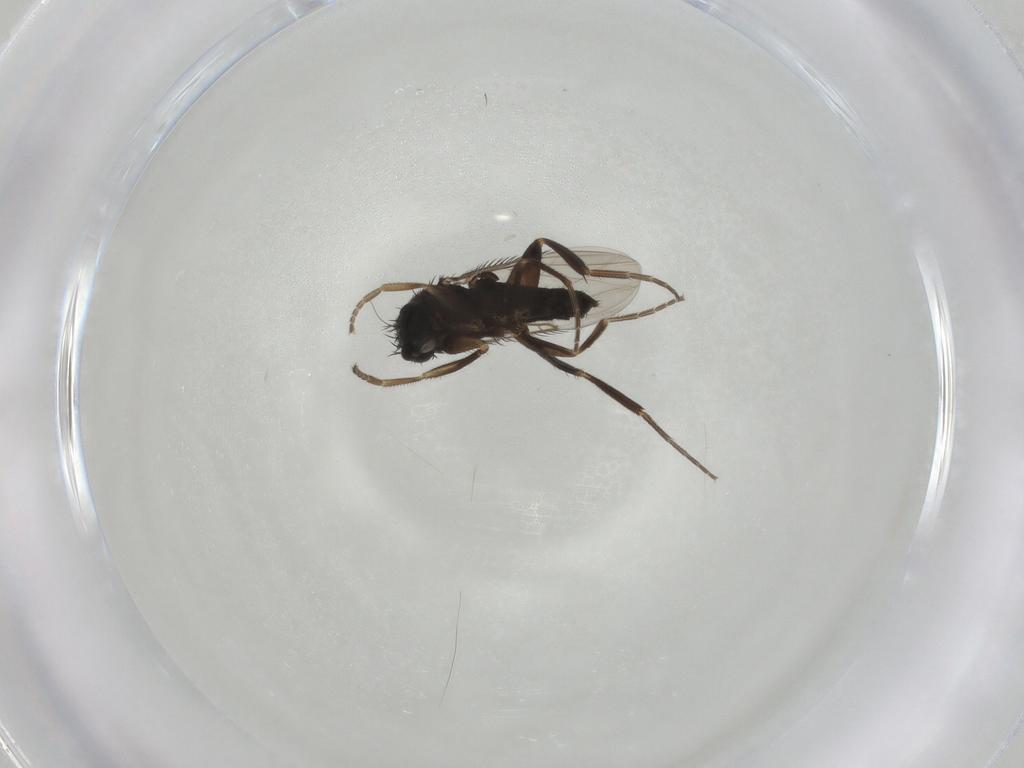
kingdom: Animalia
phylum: Arthropoda
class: Insecta
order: Diptera
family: Phoridae
